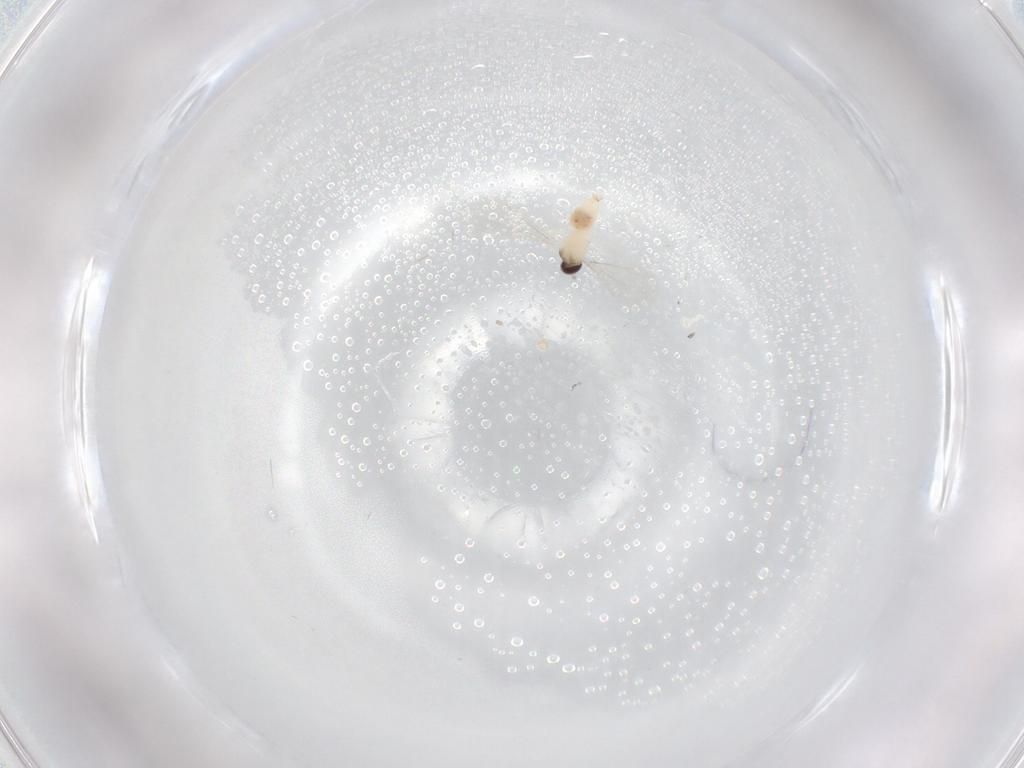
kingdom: Animalia
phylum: Arthropoda
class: Insecta
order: Diptera
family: Cecidomyiidae
